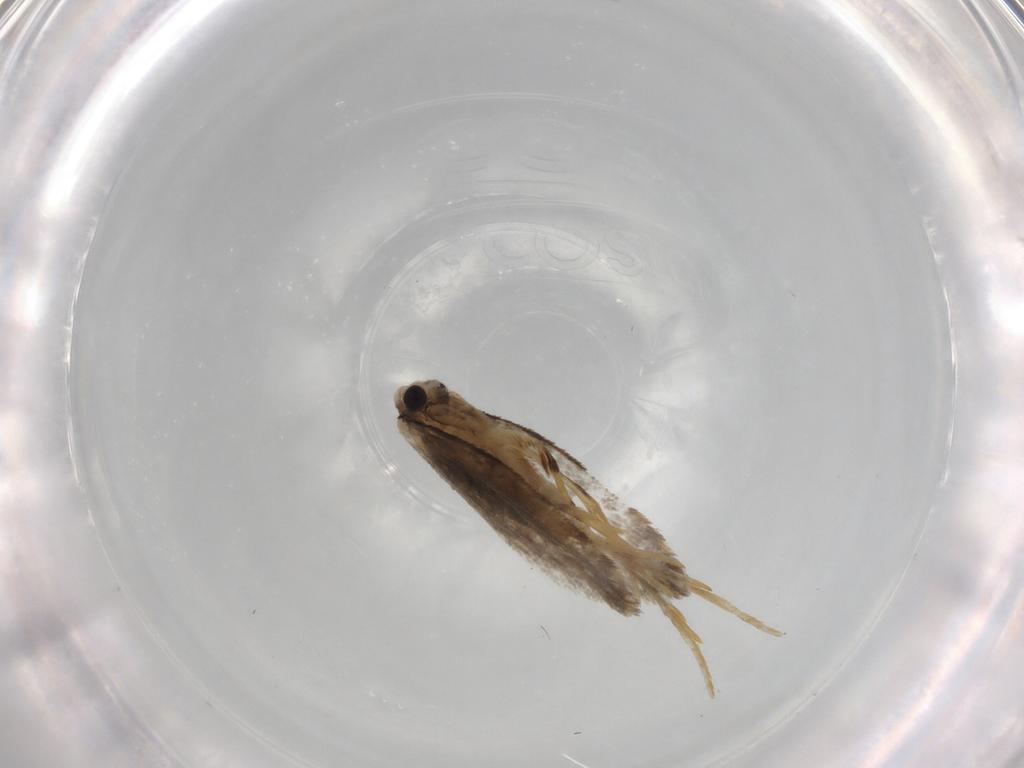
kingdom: Animalia
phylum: Arthropoda
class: Insecta
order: Lepidoptera
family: Psychidae
